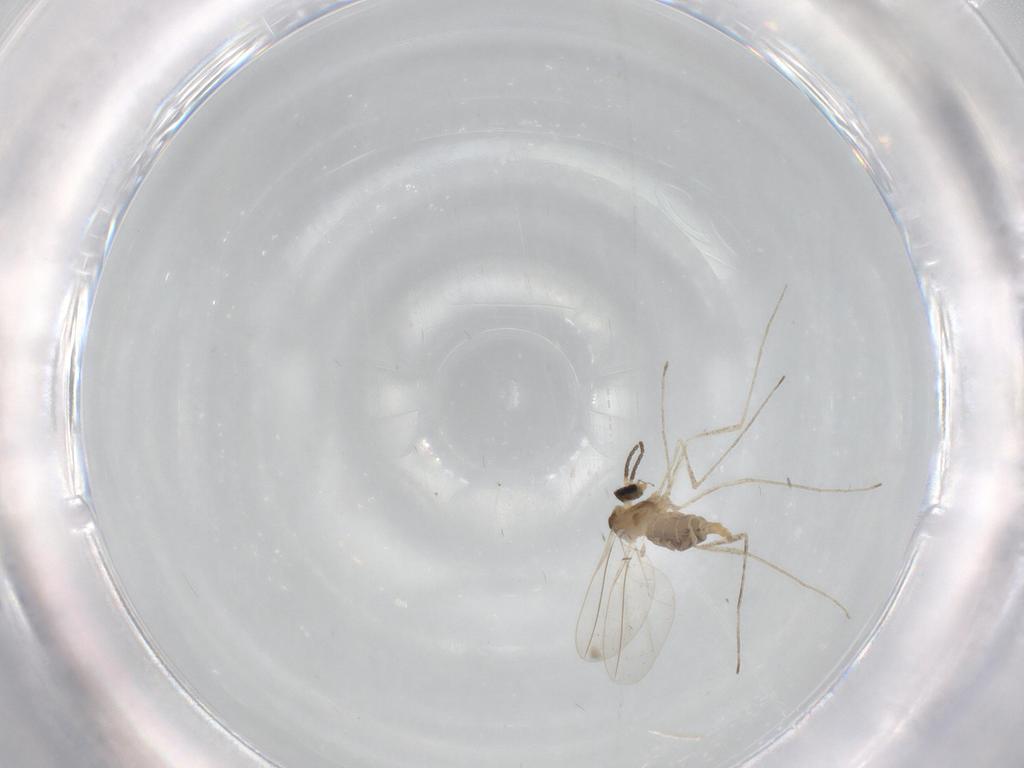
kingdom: Animalia
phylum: Arthropoda
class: Insecta
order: Diptera
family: Cecidomyiidae
